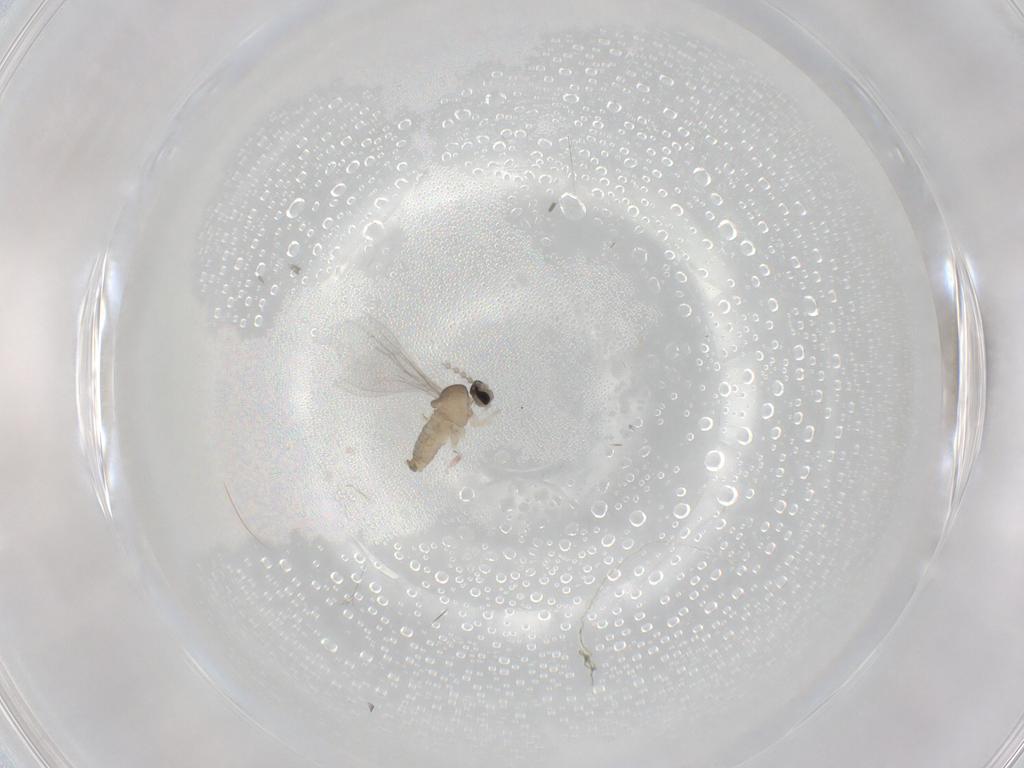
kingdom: Animalia
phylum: Arthropoda
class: Insecta
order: Diptera
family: Cecidomyiidae
